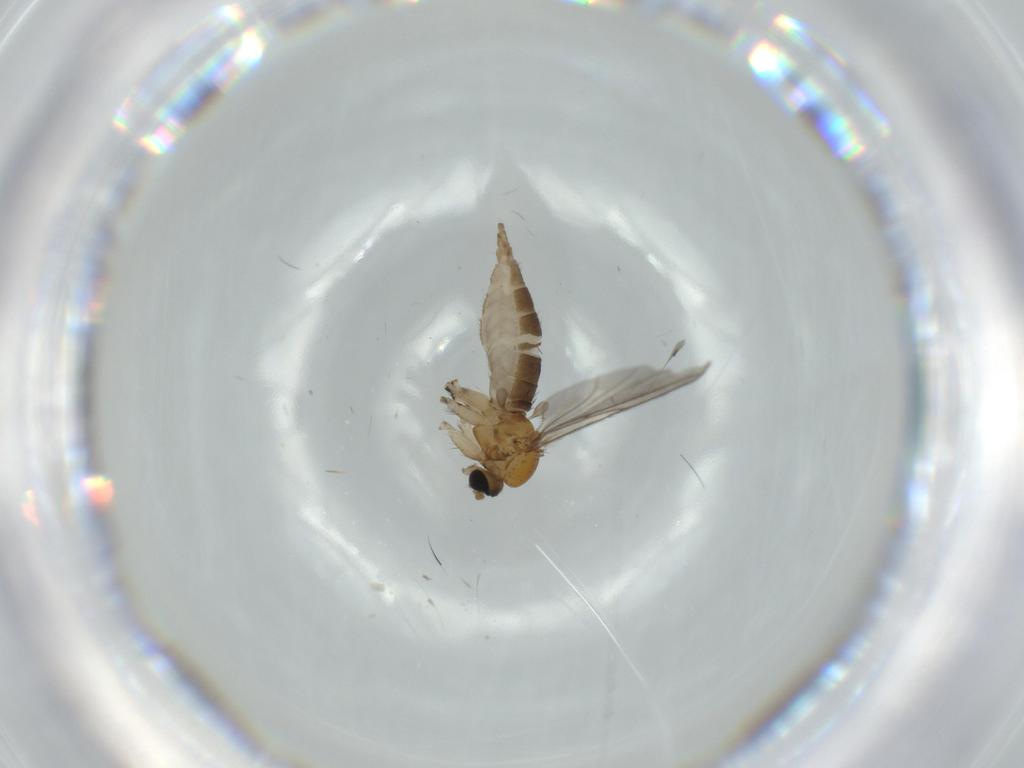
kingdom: Animalia
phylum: Arthropoda
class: Insecta
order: Diptera
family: Sciaridae
